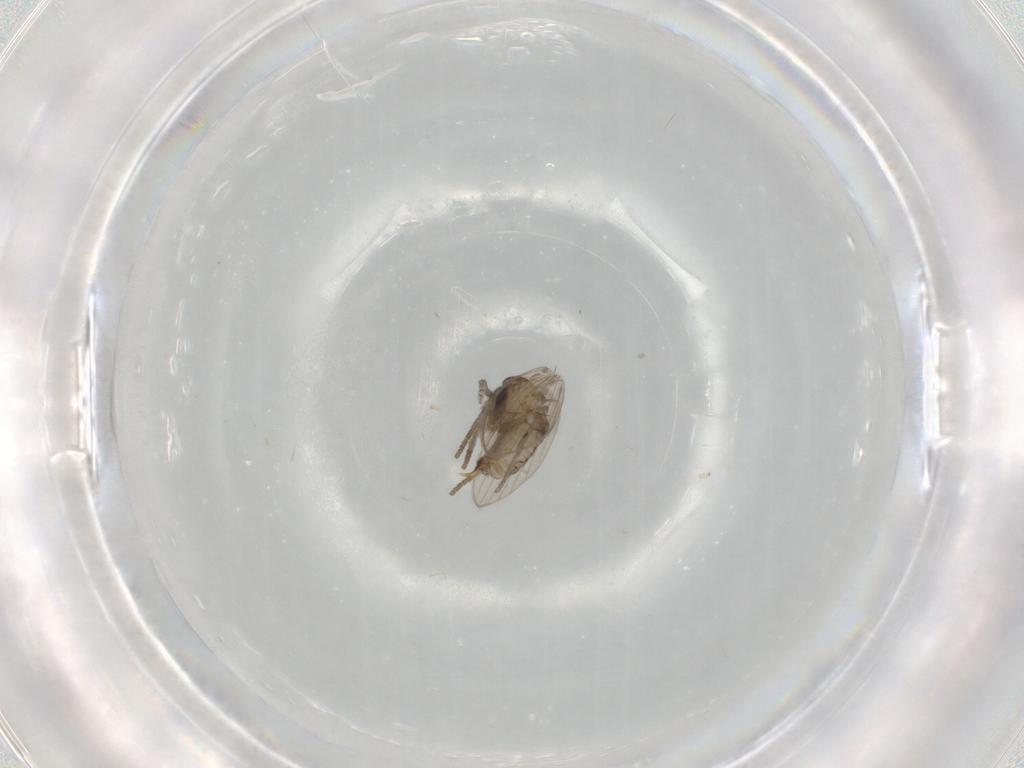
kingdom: Animalia
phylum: Arthropoda
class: Insecta
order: Diptera
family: Psychodidae
